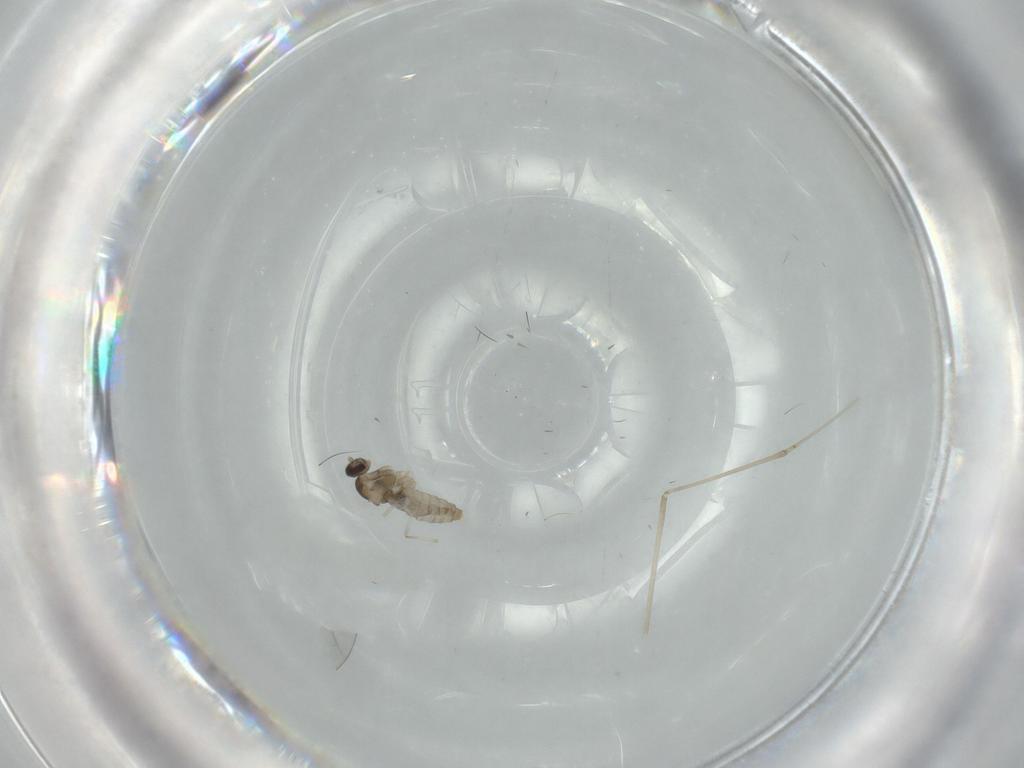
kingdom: Animalia
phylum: Arthropoda
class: Insecta
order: Diptera
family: Cecidomyiidae
